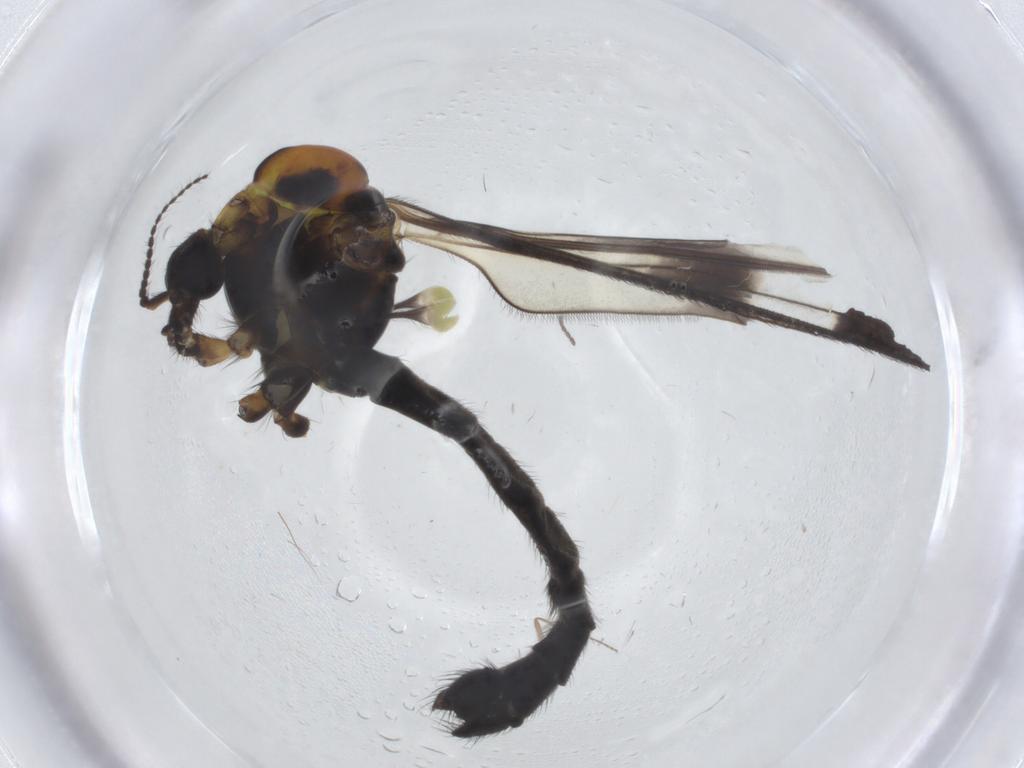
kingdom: Animalia
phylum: Arthropoda
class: Insecta
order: Diptera
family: Limoniidae
